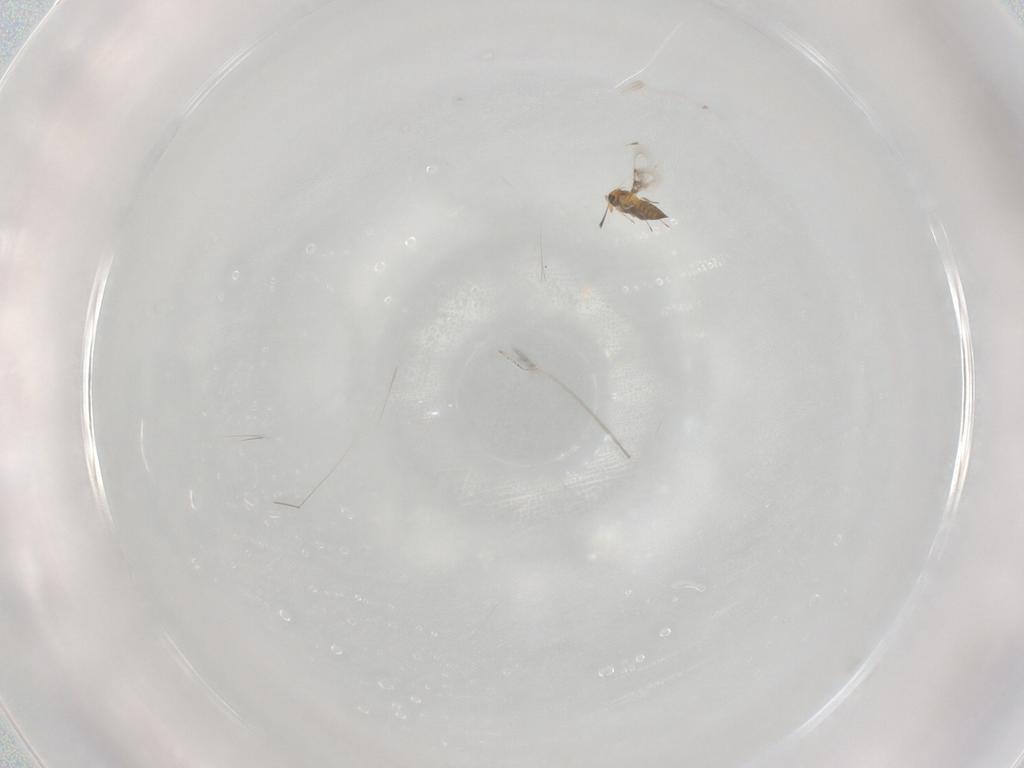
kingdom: Animalia
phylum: Arthropoda
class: Insecta
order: Hymenoptera
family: Trichogrammatidae
